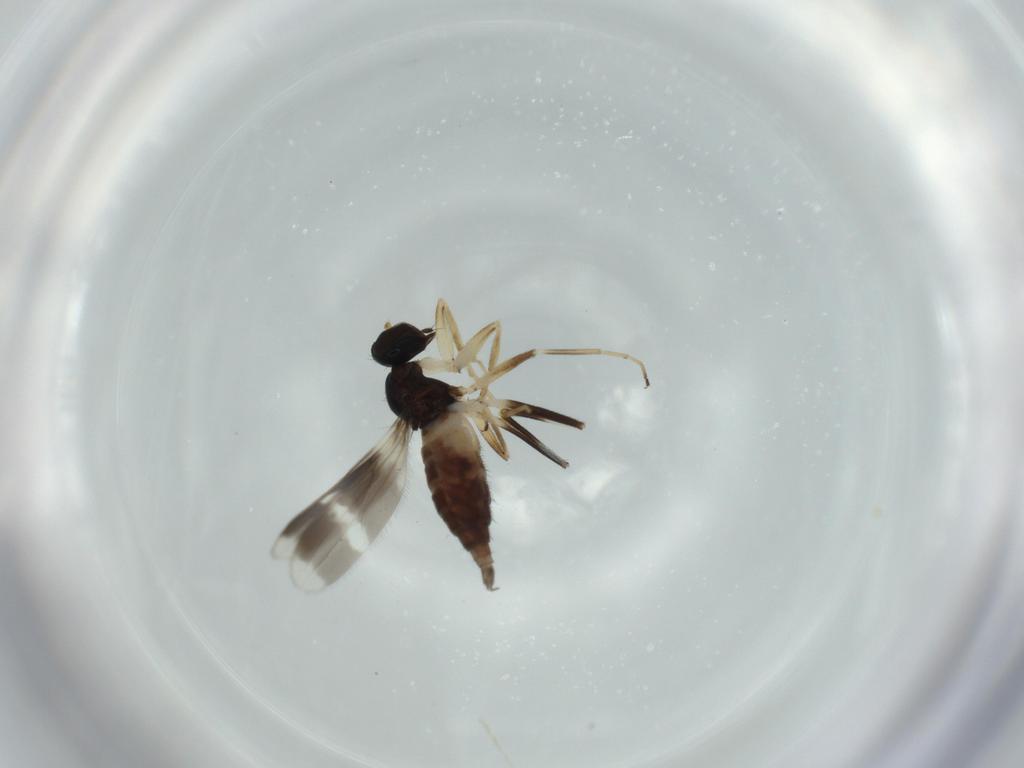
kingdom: Animalia
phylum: Arthropoda
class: Insecta
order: Diptera
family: Hybotidae
